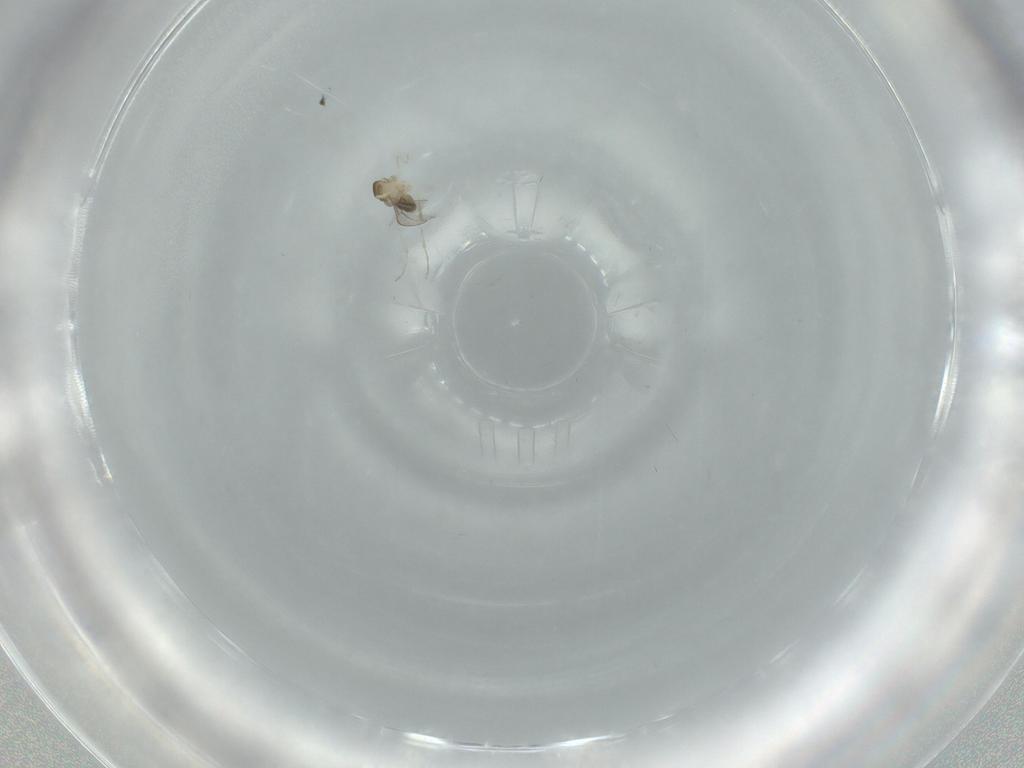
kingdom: Animalia
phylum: Arthropoda
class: Insecta
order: Diptera
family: Cecidomyiidae
